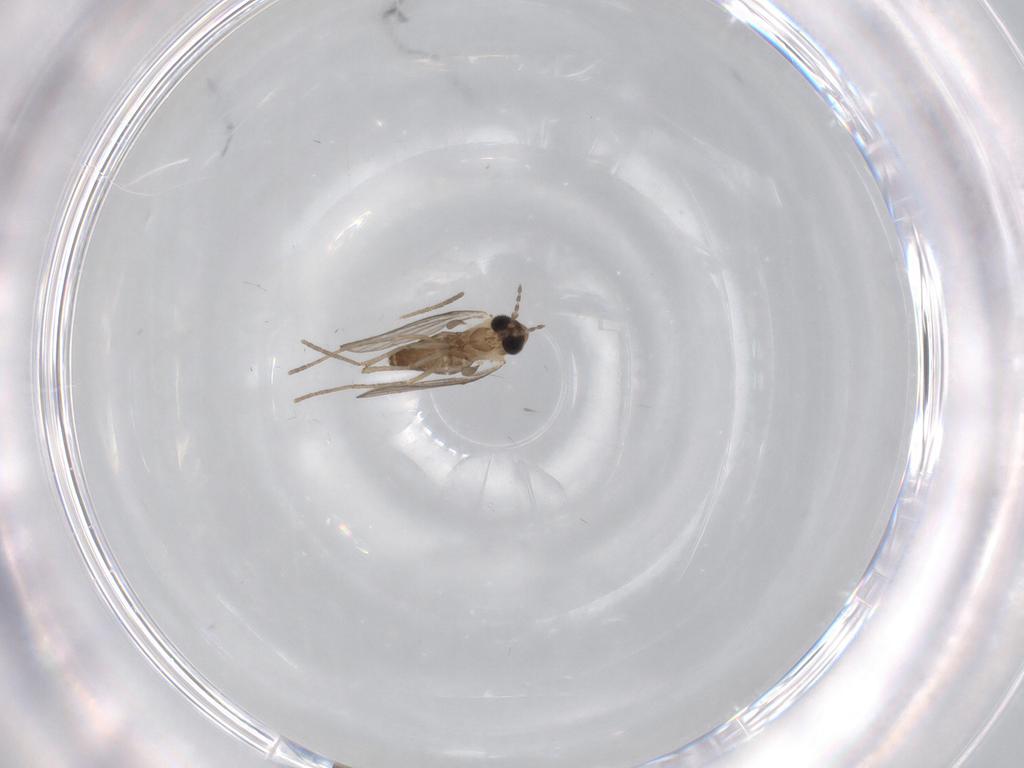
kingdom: Animalia
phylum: Arthropoda
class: Insecta
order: Diptera
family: Psychodidae
